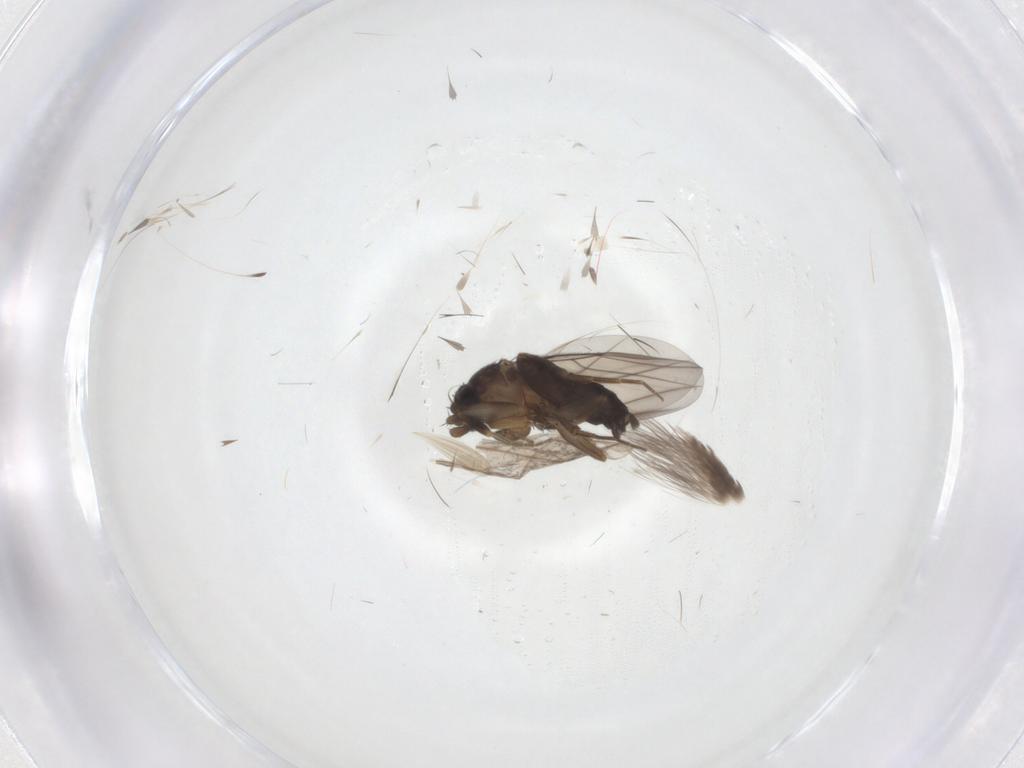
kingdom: Animalia
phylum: Arthropoda
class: Insecta
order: Diptera
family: Phoridae
